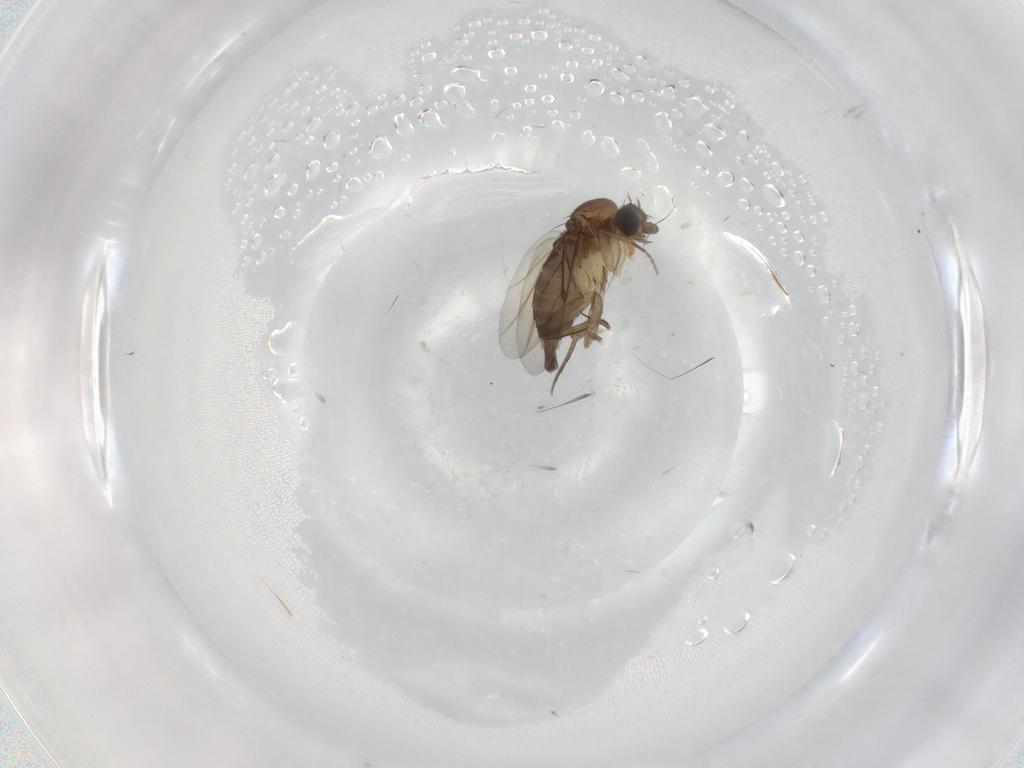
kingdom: Animalia
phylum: Arthropoda
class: Insecta
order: Diptera
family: Phoridae
